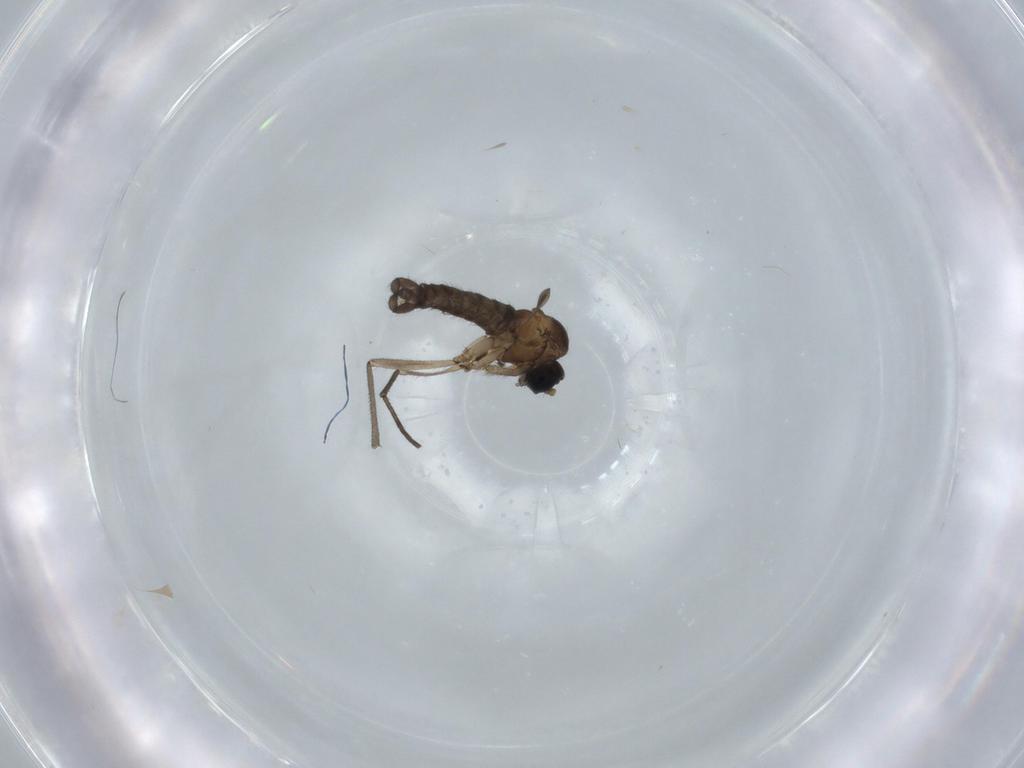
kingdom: Animalia
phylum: Arthropoda
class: Insecta
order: Diptera
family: Ceratopogonidae
